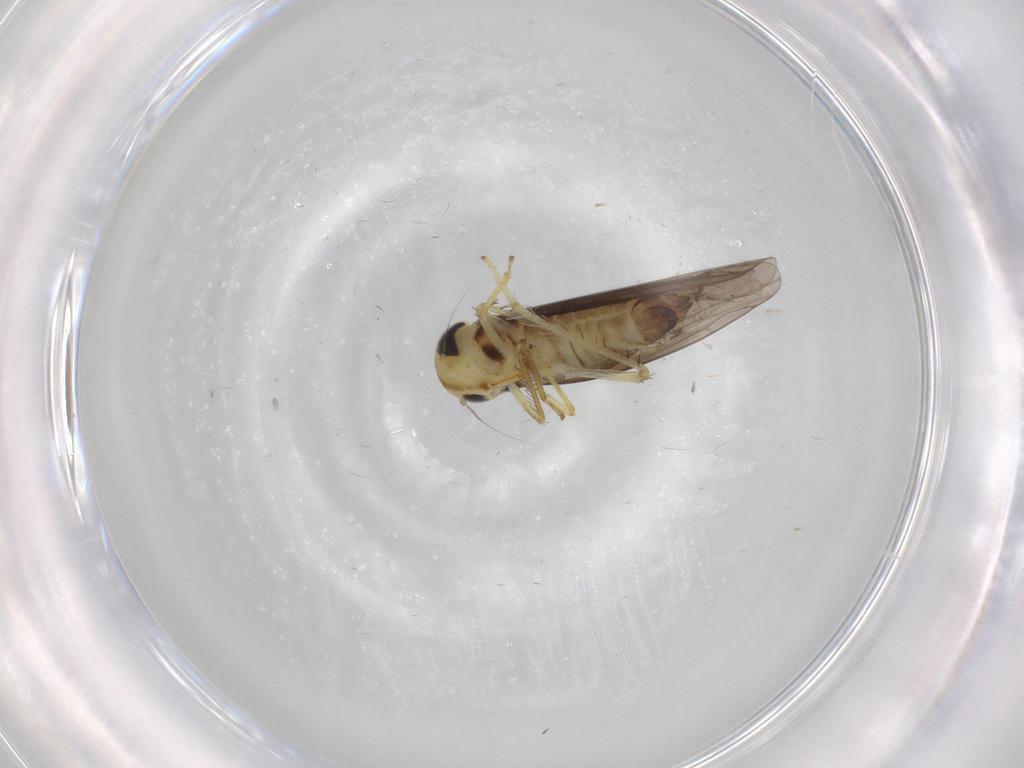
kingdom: Animalia
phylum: Arthropoda
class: Insecta
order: Hemiptera
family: Cicadellidae
